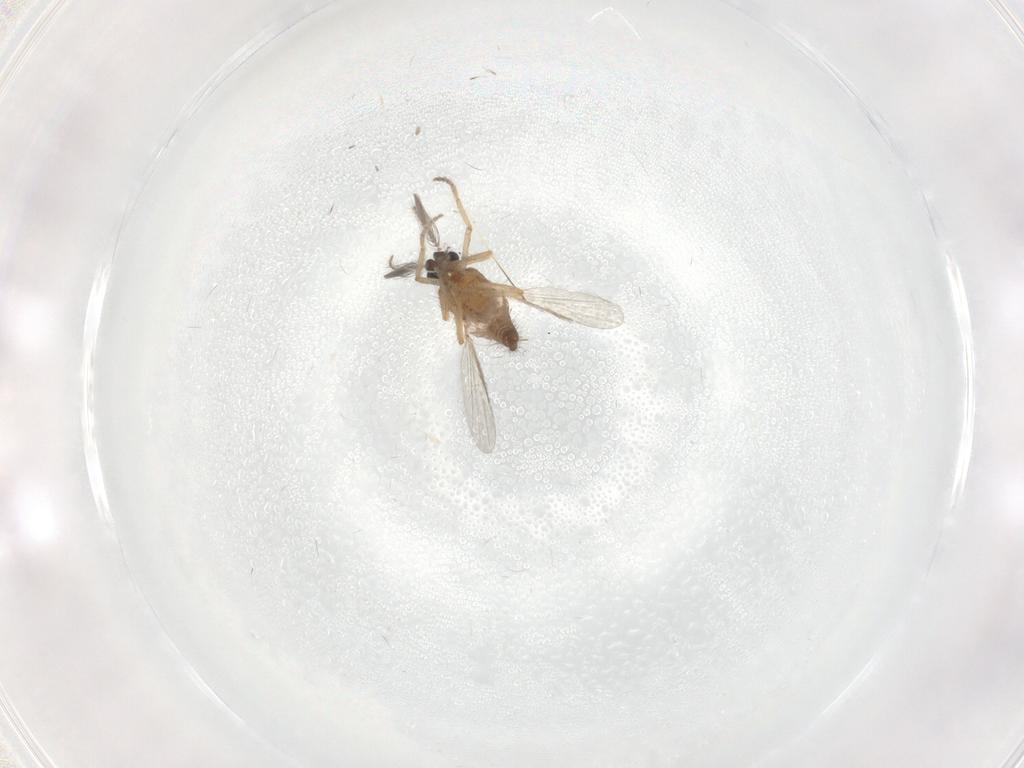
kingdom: Animalia
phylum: Arthropoda
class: Insecta
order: Diptera
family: Ceratopogonidae
